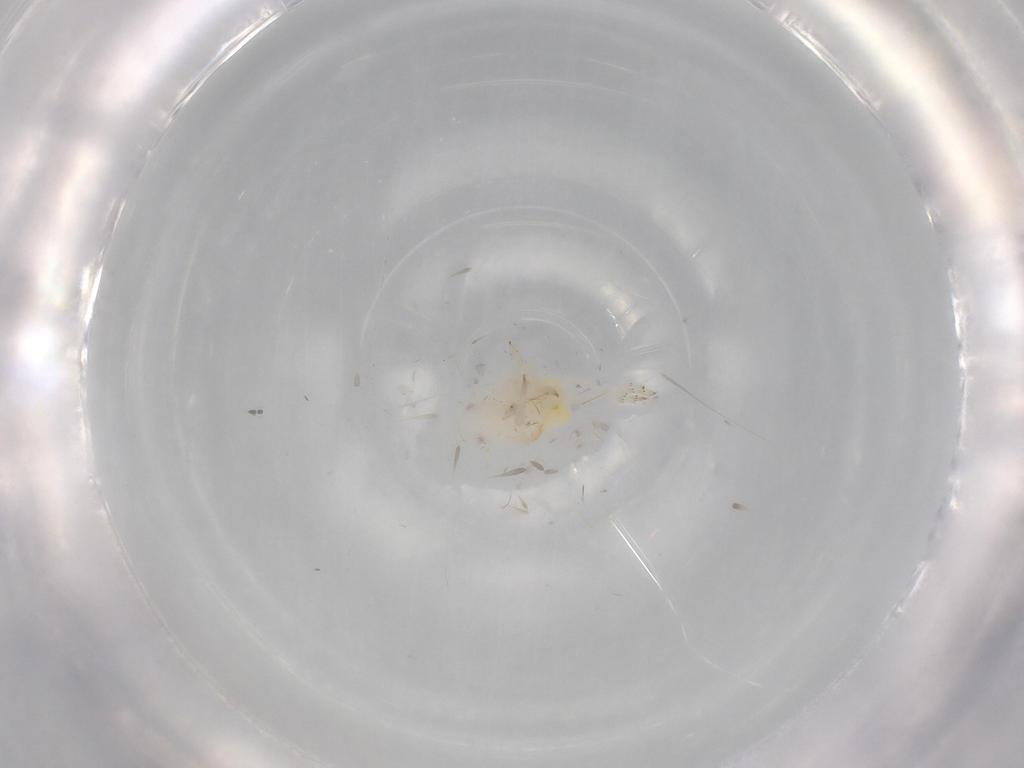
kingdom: Animalia
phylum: Arthropoda
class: Insecta
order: Hemiptera
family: Flatidae
